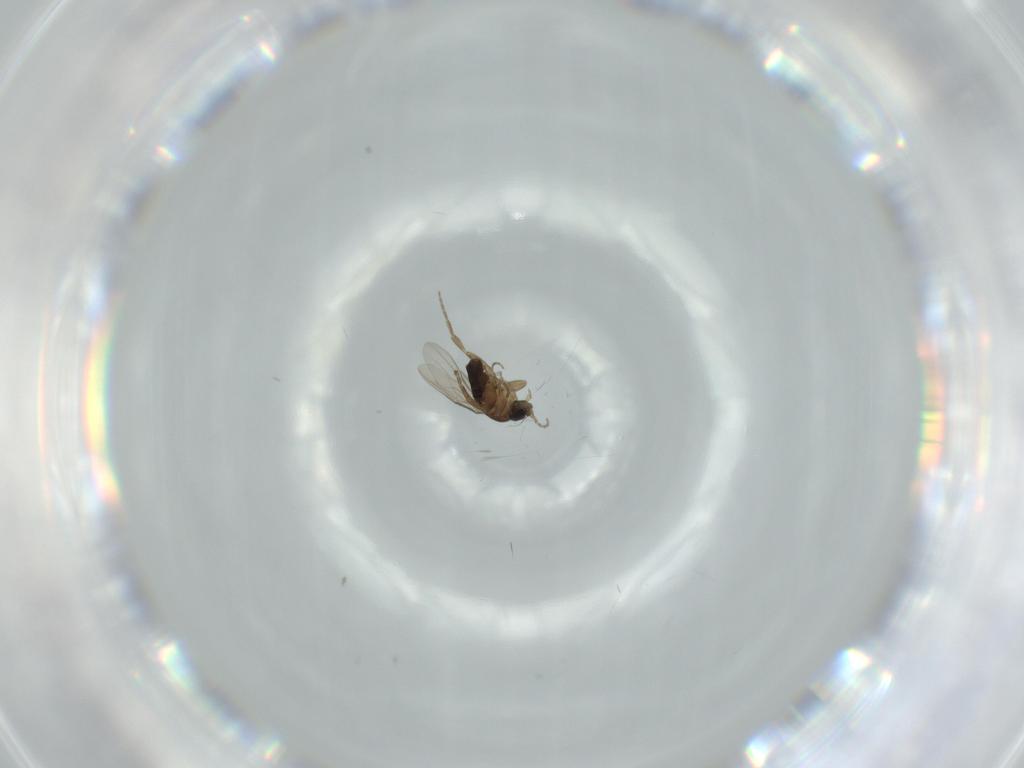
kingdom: Animalia
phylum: Arthropoda
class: Insecta
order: Diptera
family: Phoridae
